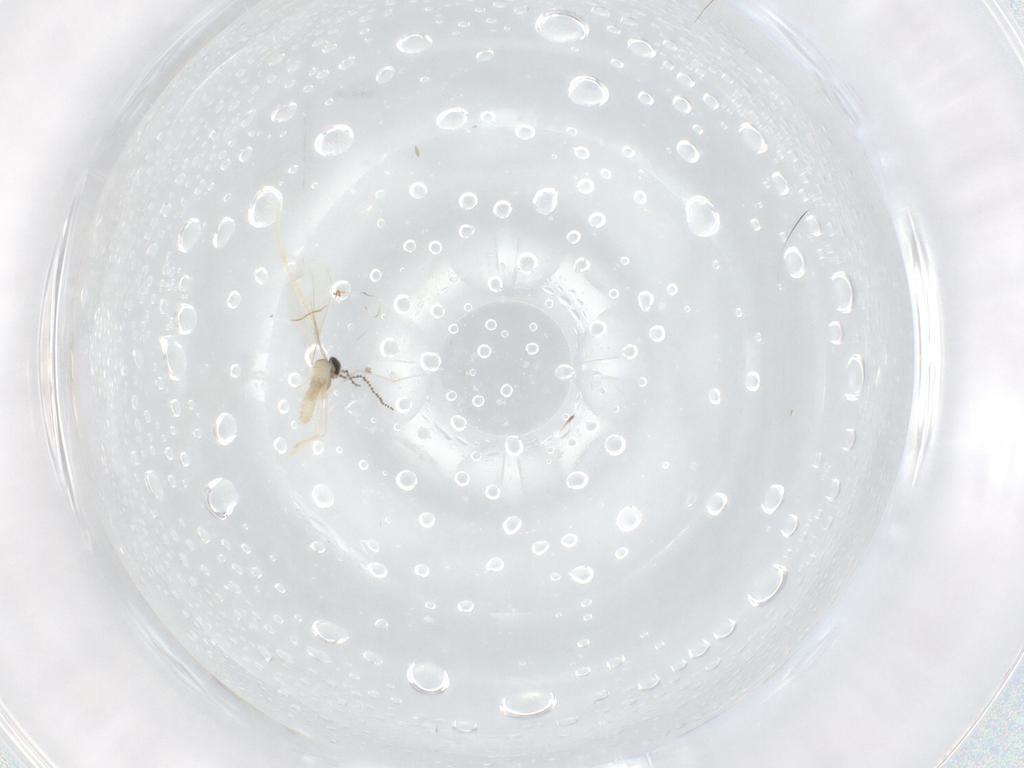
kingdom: Animalia
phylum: Arthropoda
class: Insecta
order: Diptera
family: Cecidomyiidae
